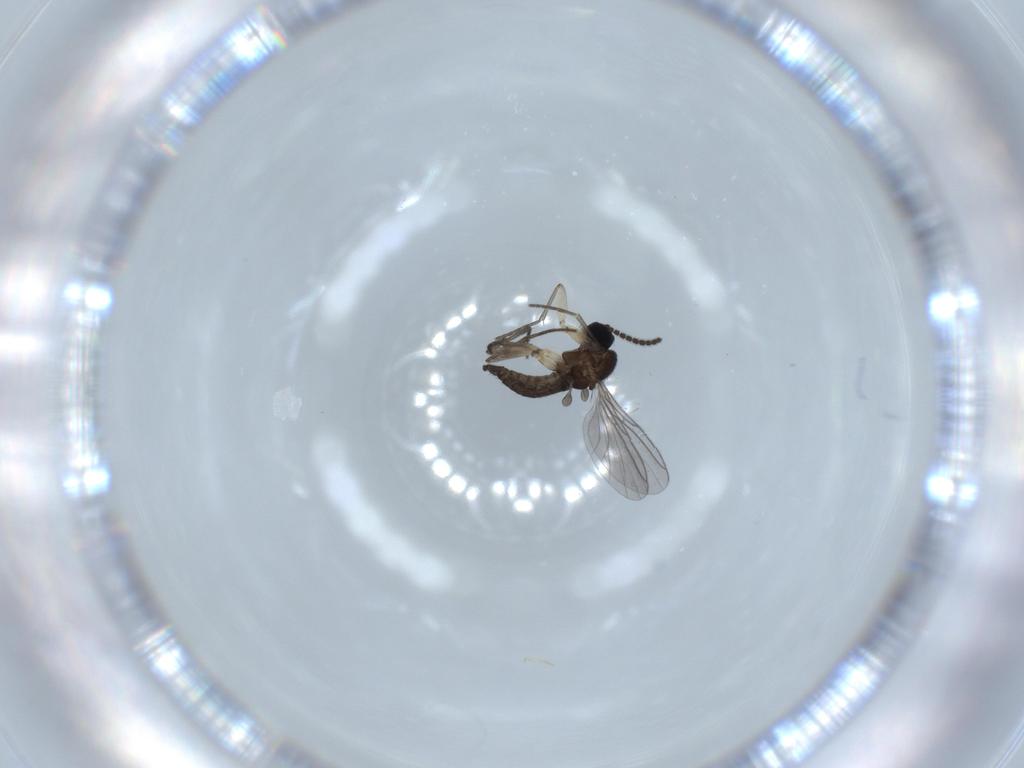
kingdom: Animalia
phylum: Arthropoda
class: Insecta
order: Diptera
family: Sciaridae
